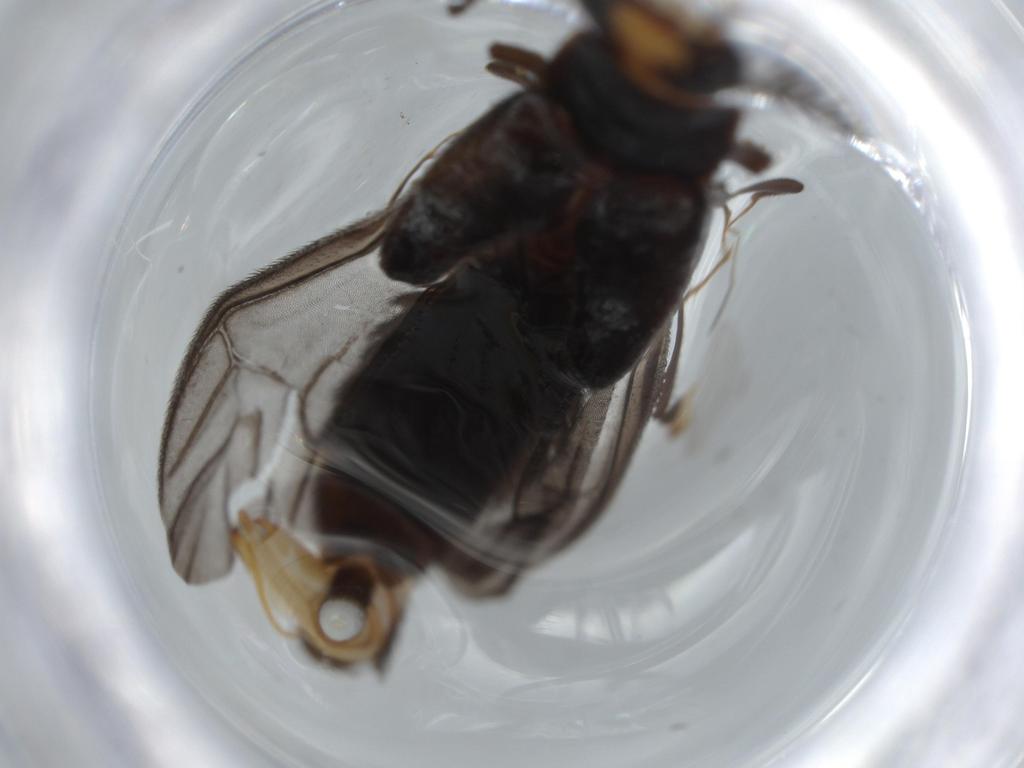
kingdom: Animalia
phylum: Arthropoda
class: Insecta
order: Coleoptera
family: Phengodidae
